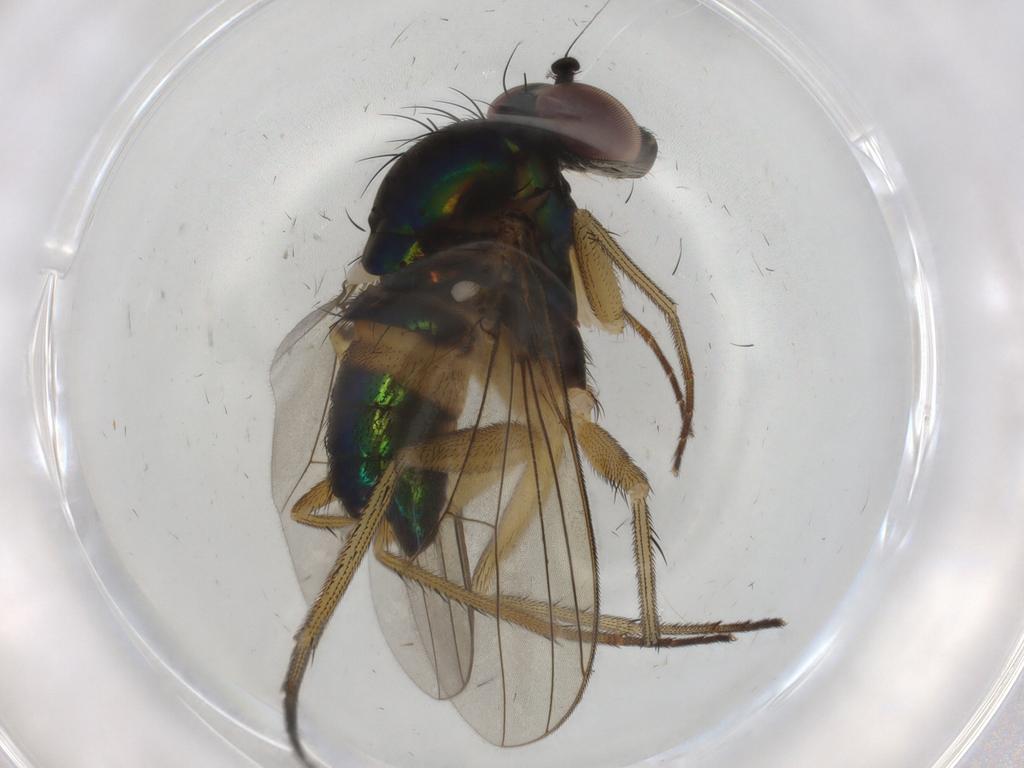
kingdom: Animalia
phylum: Arthropoda
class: Insecta
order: Diptera
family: Dolichopodidae
